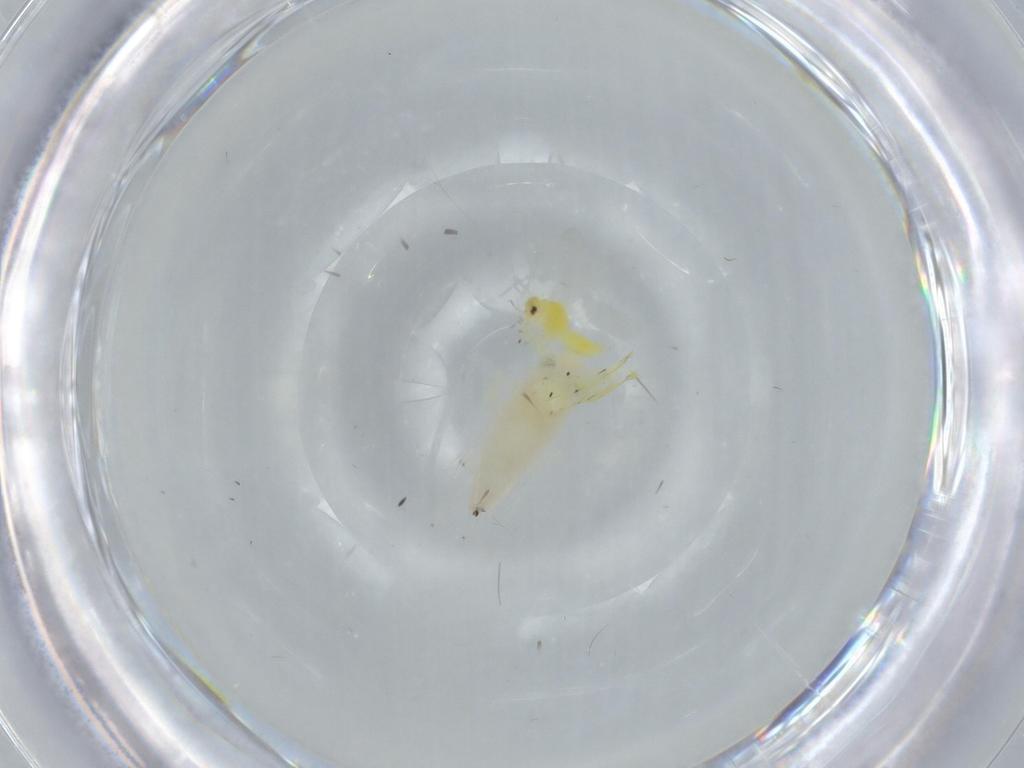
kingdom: Animalia
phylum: Arthropoda
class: Insecta
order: Hemiptera
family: Cicadellidae
